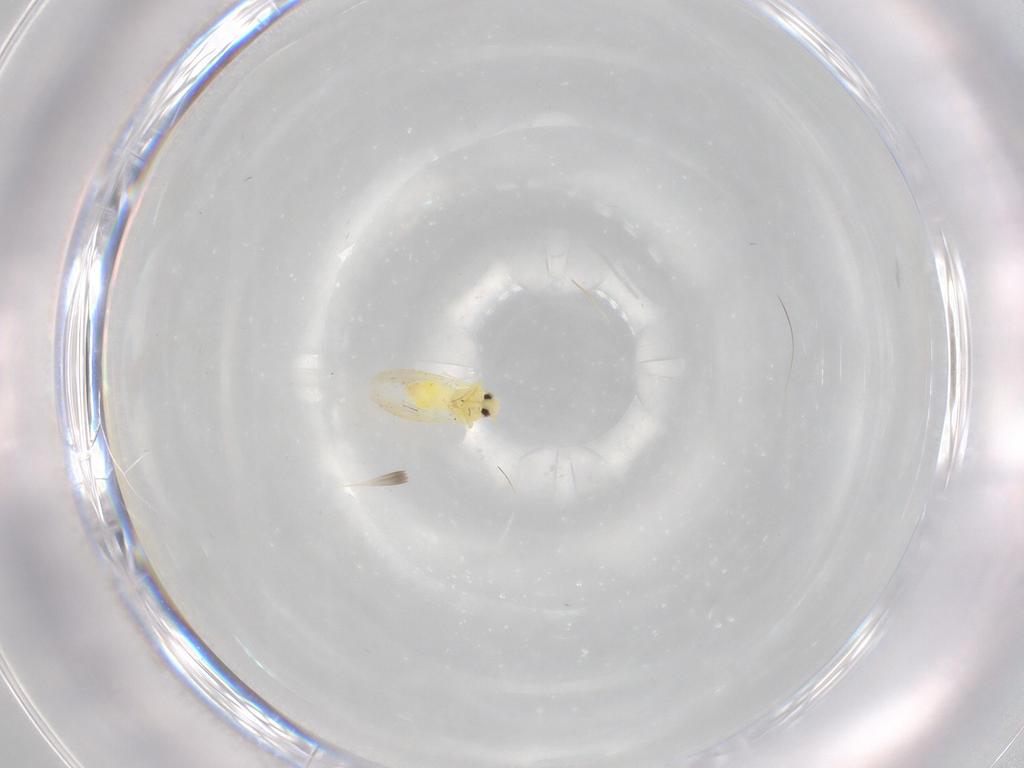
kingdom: Animalia
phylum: Arthropoda
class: Insecta
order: Hemiptera
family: Aleyrodidae
